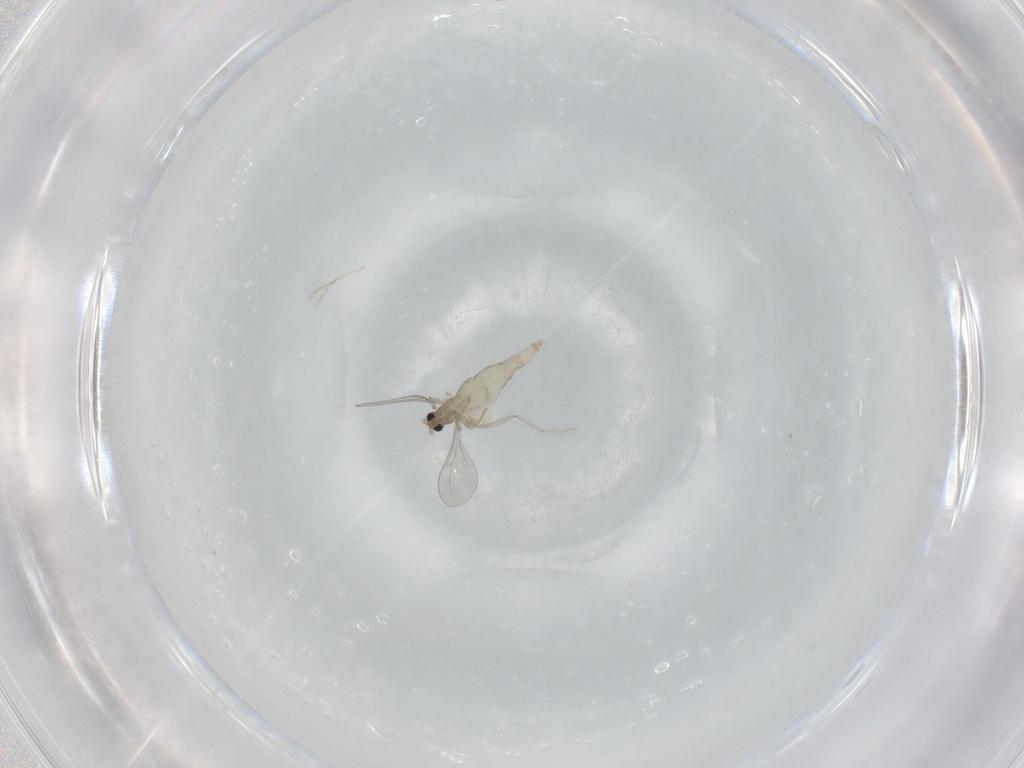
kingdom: Animalia
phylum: Arthropoda
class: Insecta
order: Diptera
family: Cecidomyiidae
